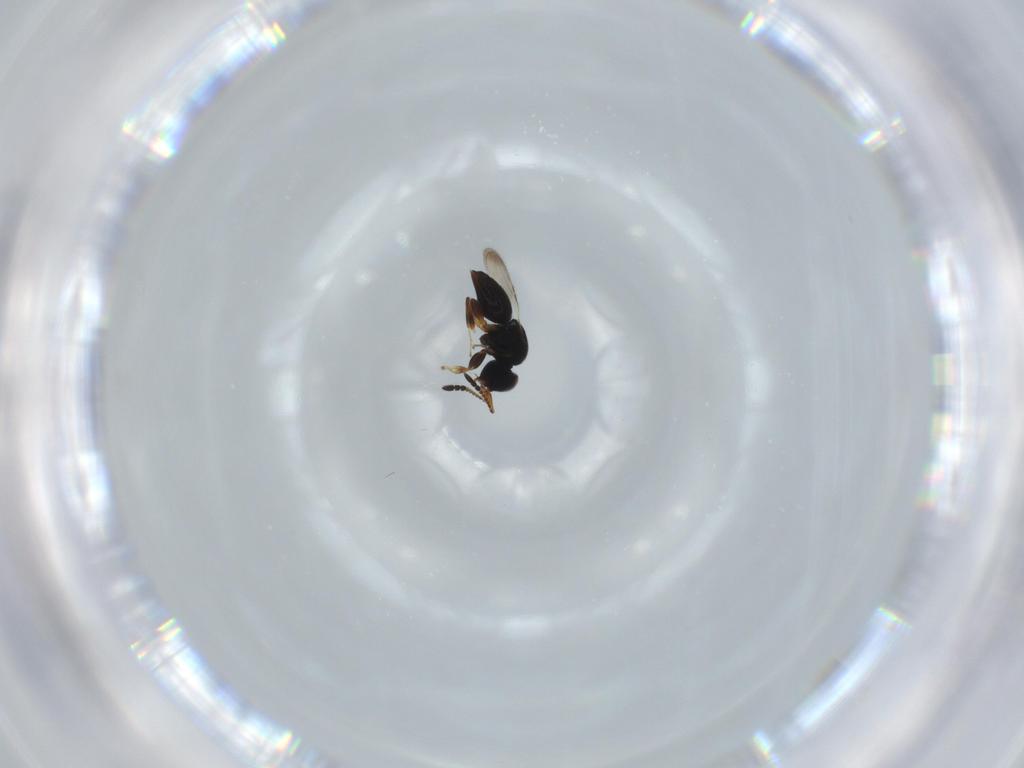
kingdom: Animalia
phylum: Arthropoda
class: Insecta
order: Hymenoptera
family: Ceraphronidae
